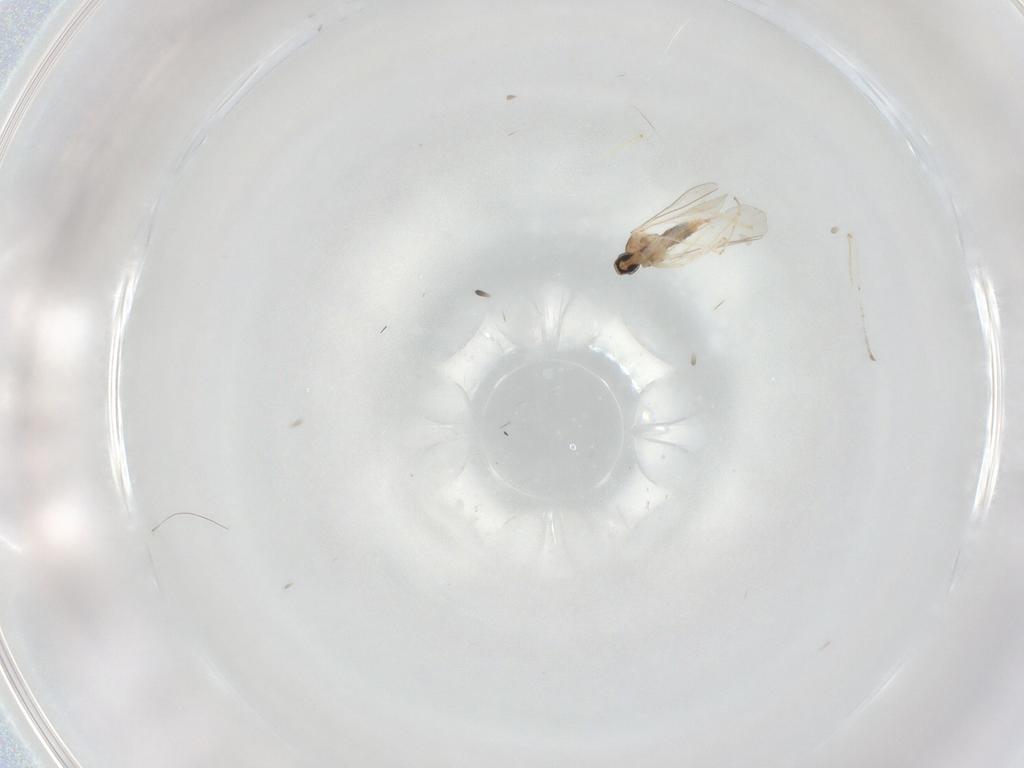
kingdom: Animalia
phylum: Arthropoda
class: Insecta
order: Diptera
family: Cecidomyiidae
